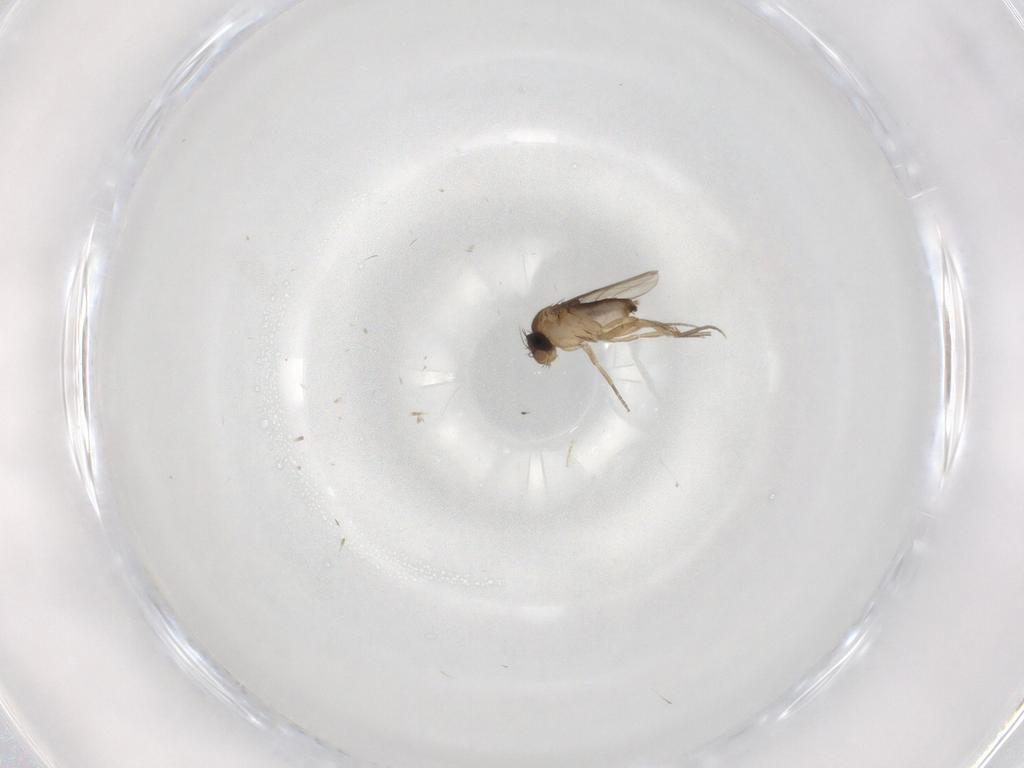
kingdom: Animalia
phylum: Arthropoda
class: Insecta
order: Diptera
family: Phoridae
